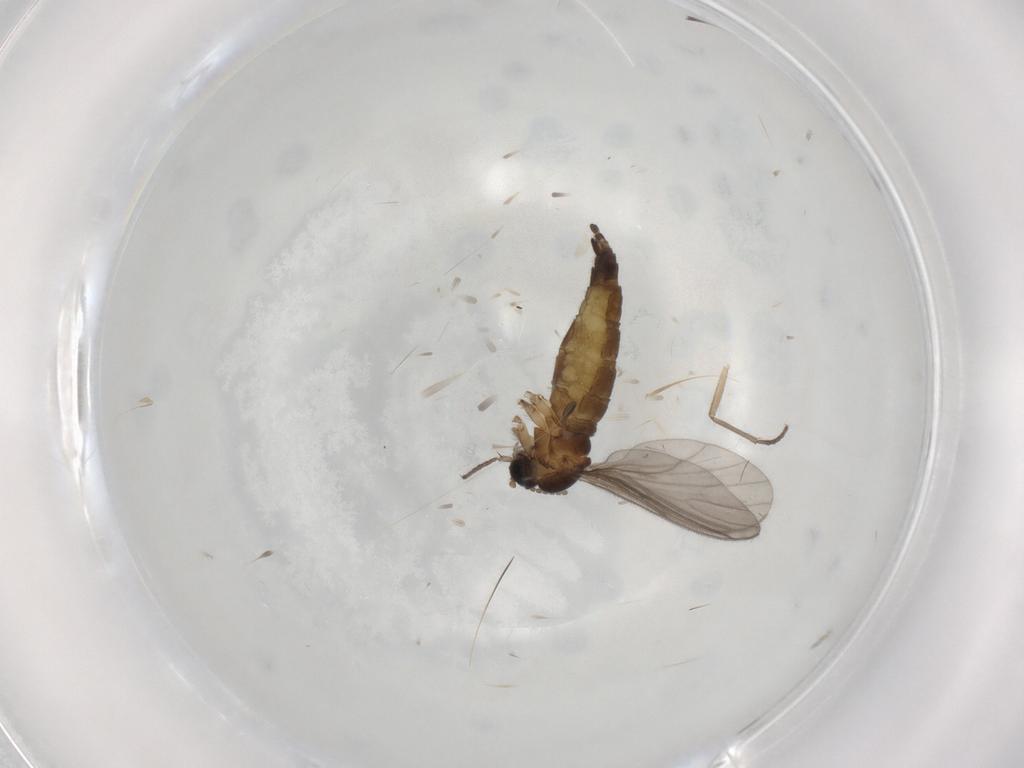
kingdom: Animalia
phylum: Arthropoda
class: Insecta
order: Diptera
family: Sciaridae
